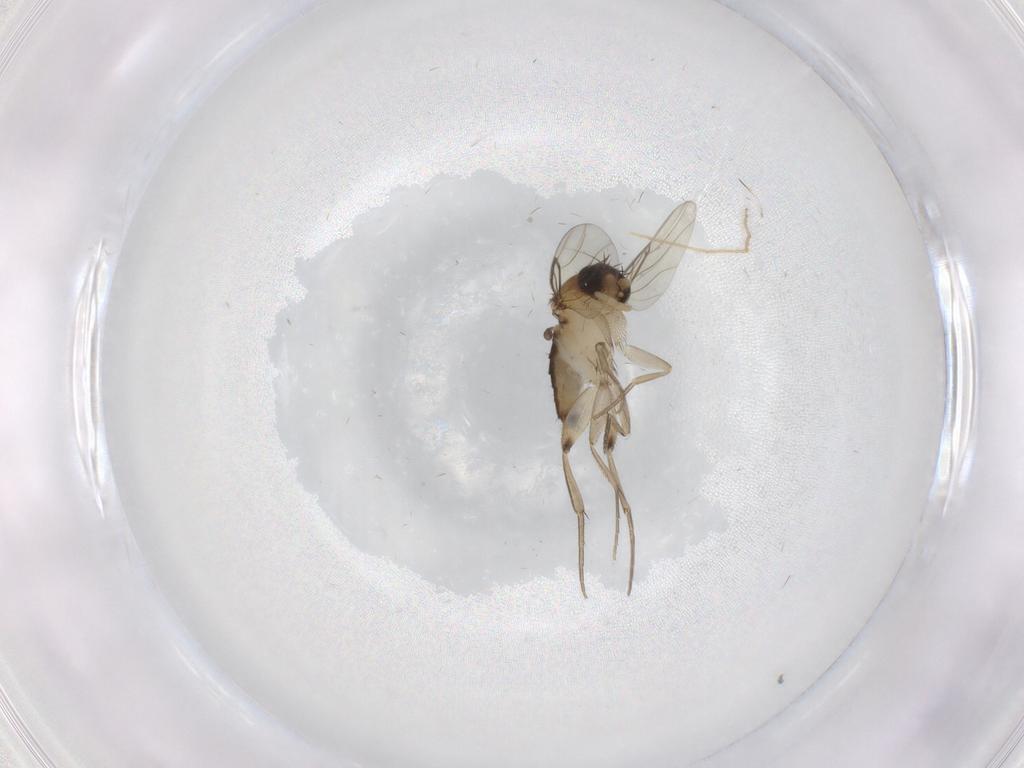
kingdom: Animalia
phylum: Arthropoda
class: Insecta
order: Diptera
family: Phoridae
